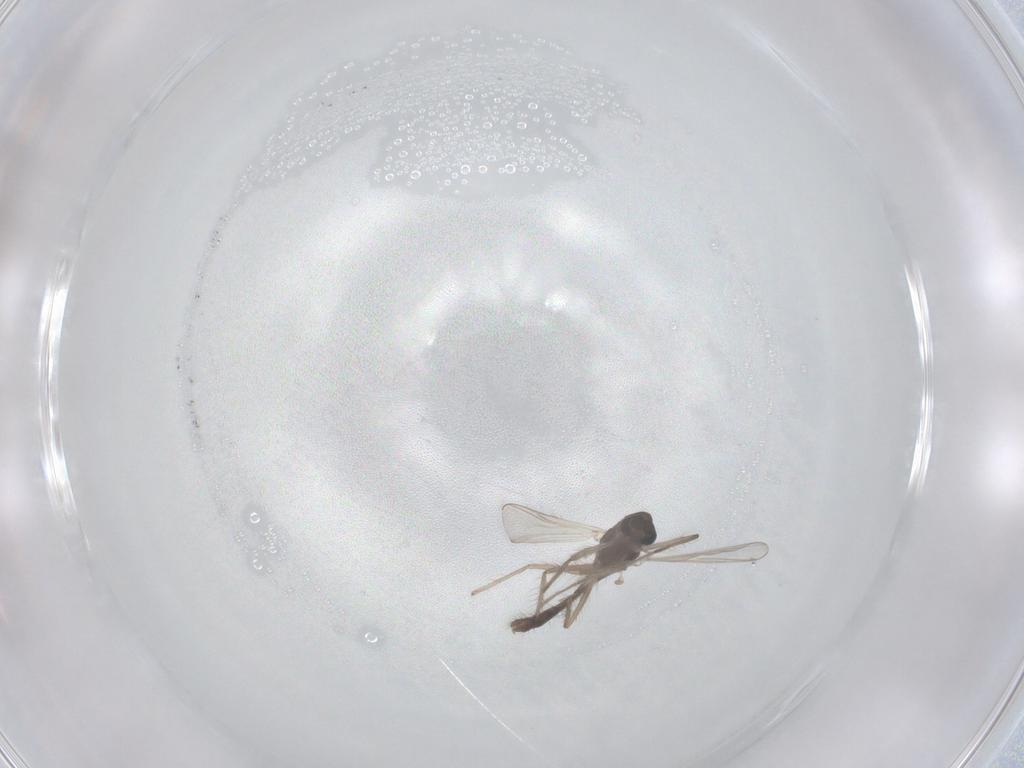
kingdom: Animalia
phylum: Arthropoda
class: Insecta
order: Diptera
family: Chironomidae
